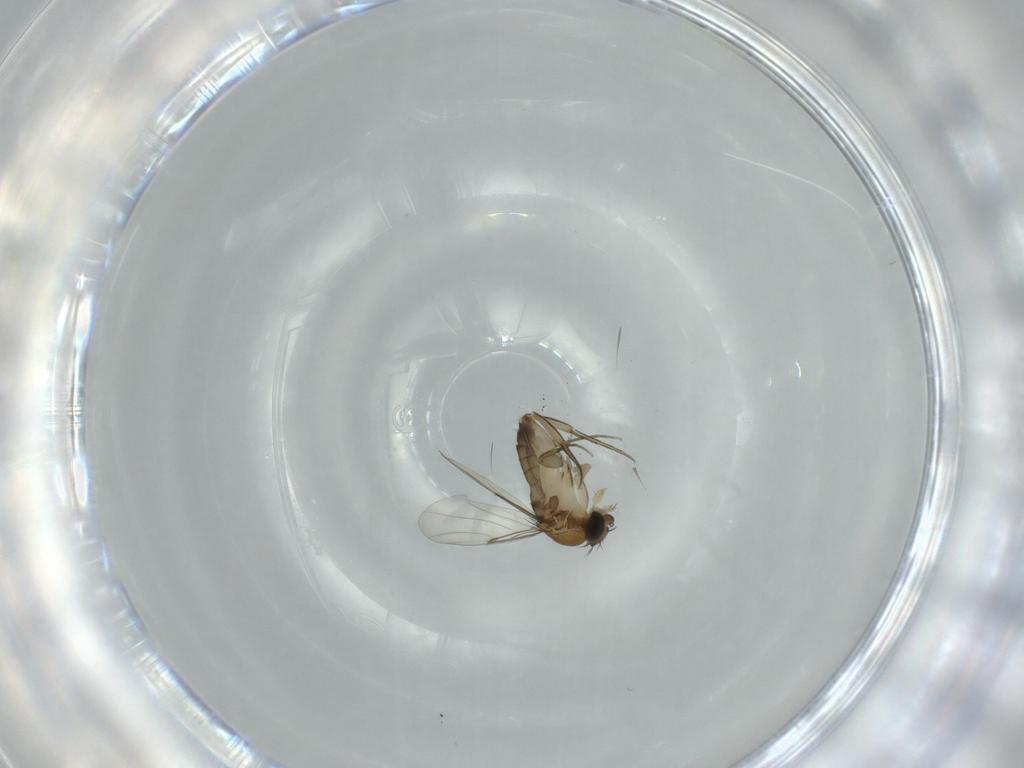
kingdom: Animalia
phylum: Arthropoda
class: Insecta
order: Diptera
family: Phoridae
